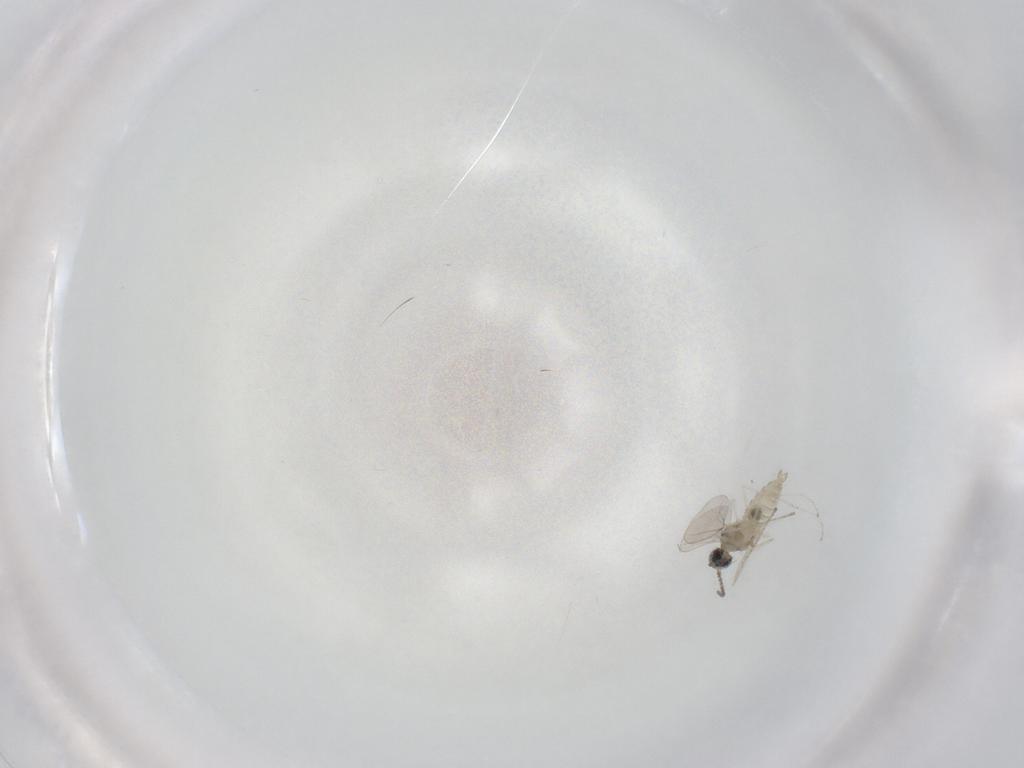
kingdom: Animalia
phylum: Arthropoda
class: Insecta
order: Diptera
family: Cecidomyiidae
